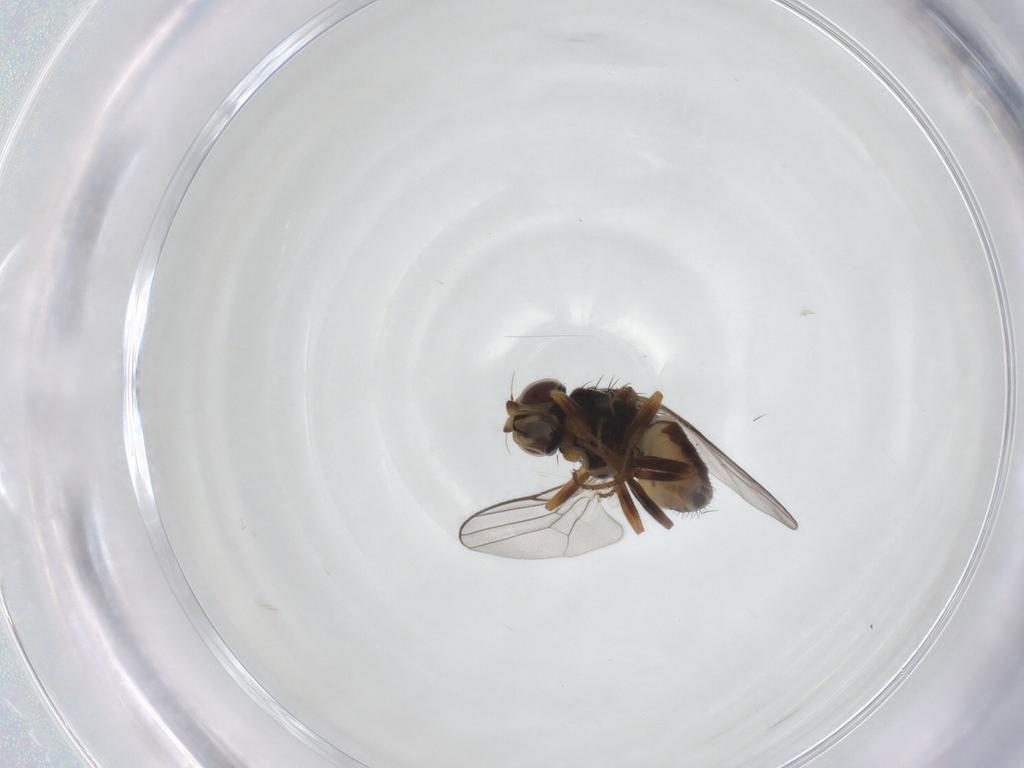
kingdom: Animalia
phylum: Arthropoda
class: Insecta
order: Diptera
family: Chloropidae
